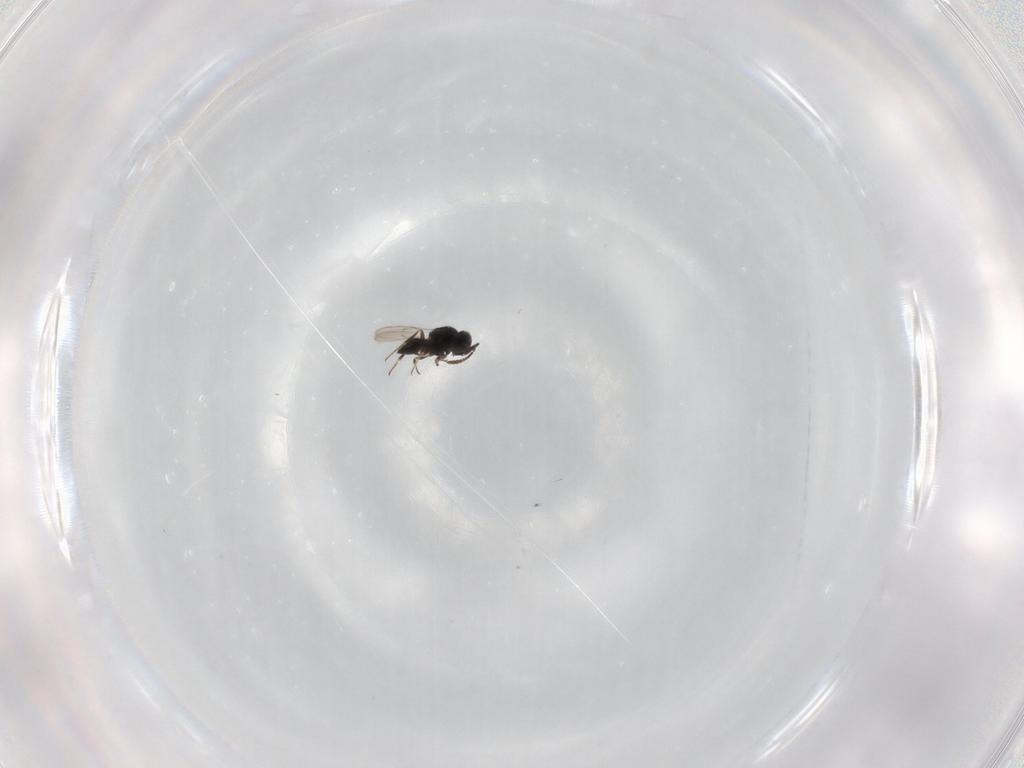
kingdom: Animalia
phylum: Arthropoda
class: Insecta
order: Hymenoptera
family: Scelionidae
